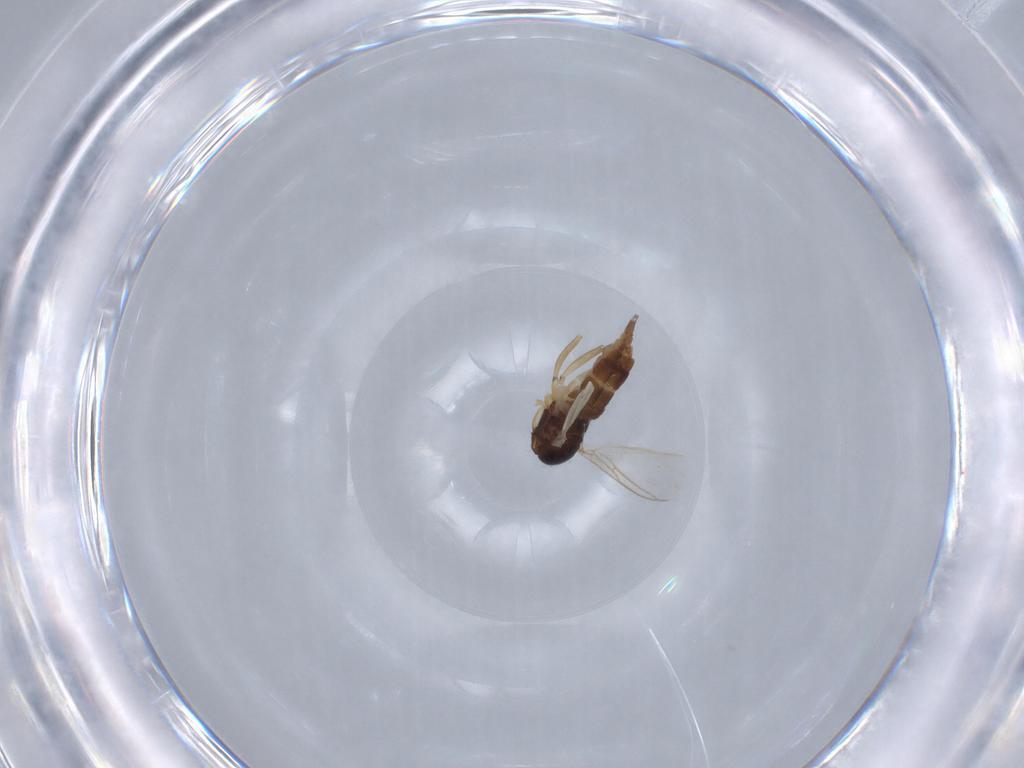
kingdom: Animalia
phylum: Arthropoda
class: Insecta
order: Diptera
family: Sciaridae
